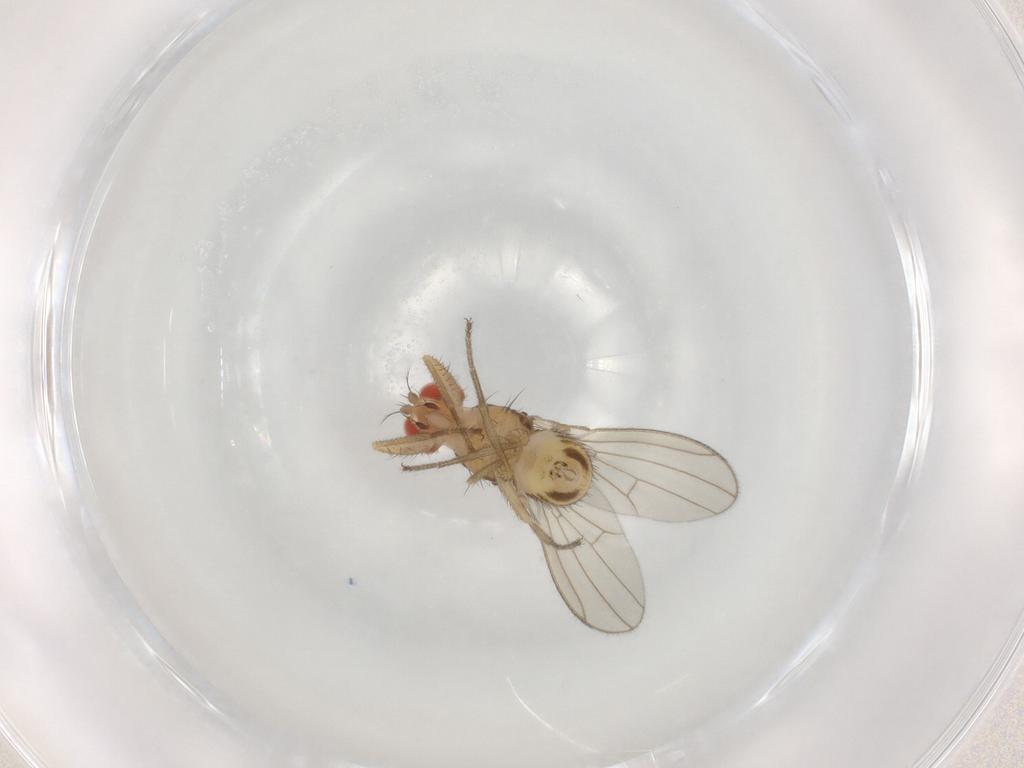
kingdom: Animalia
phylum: Arthropoda
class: Insecta
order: Diptera
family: Drosophilidae
